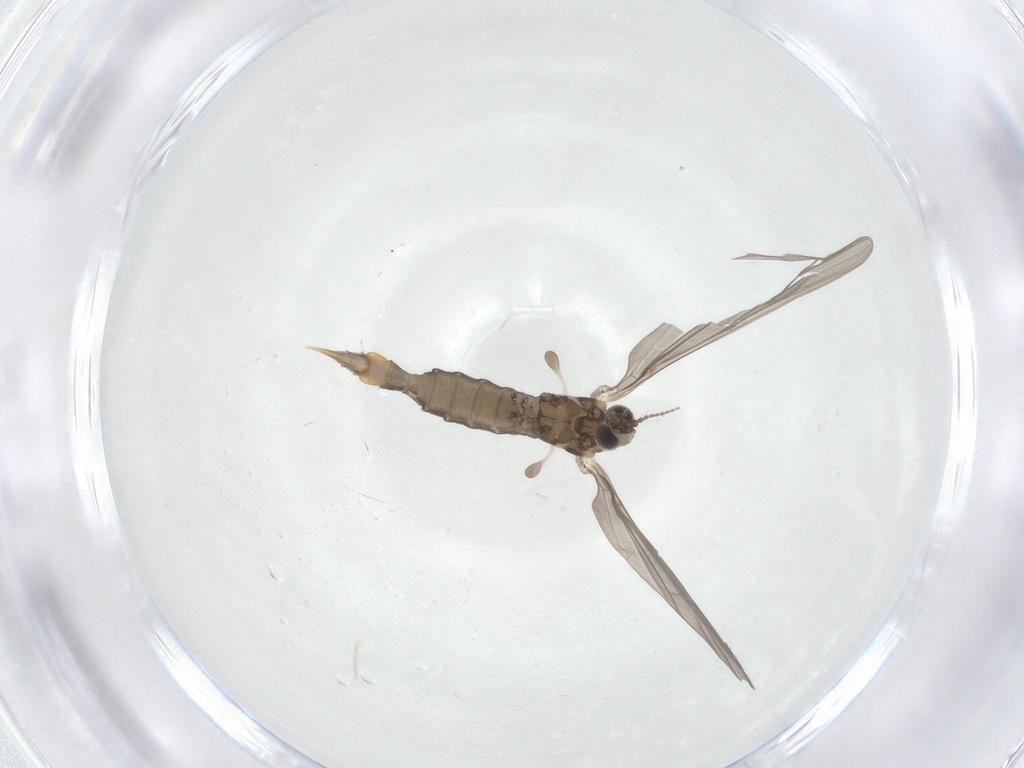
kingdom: Animalia
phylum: Arthropoda
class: Insecta
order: Diptera
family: Limoniidae
